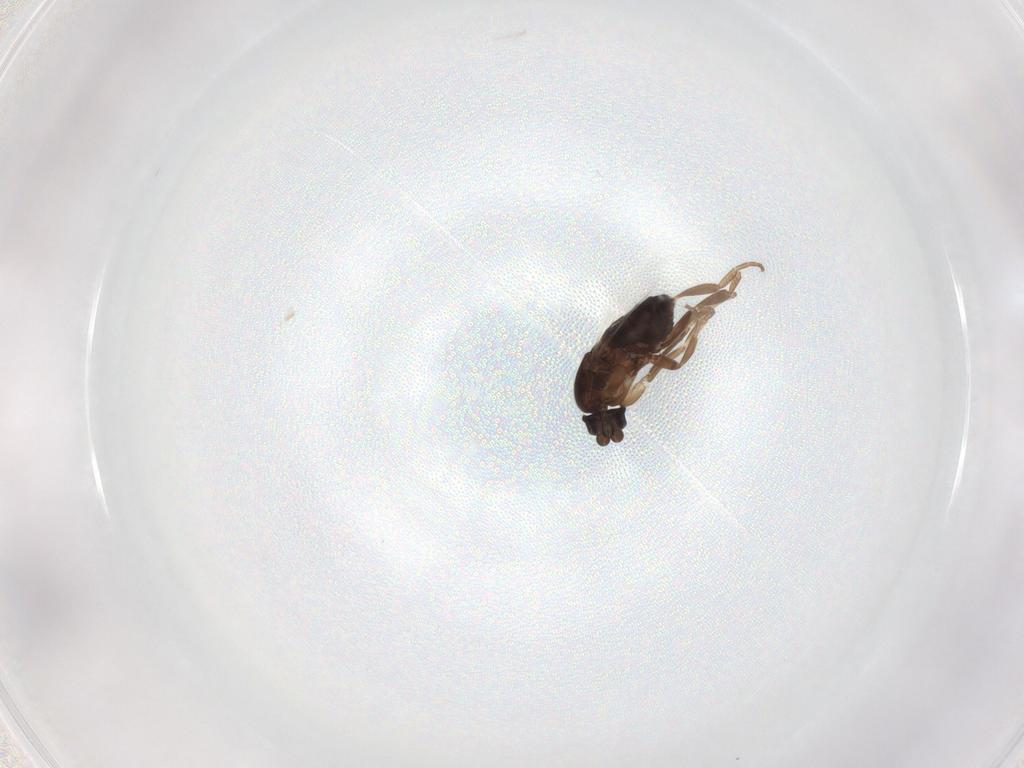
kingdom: Animalia
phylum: Arthropoda
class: Insecta
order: Diptera
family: Phoridae
